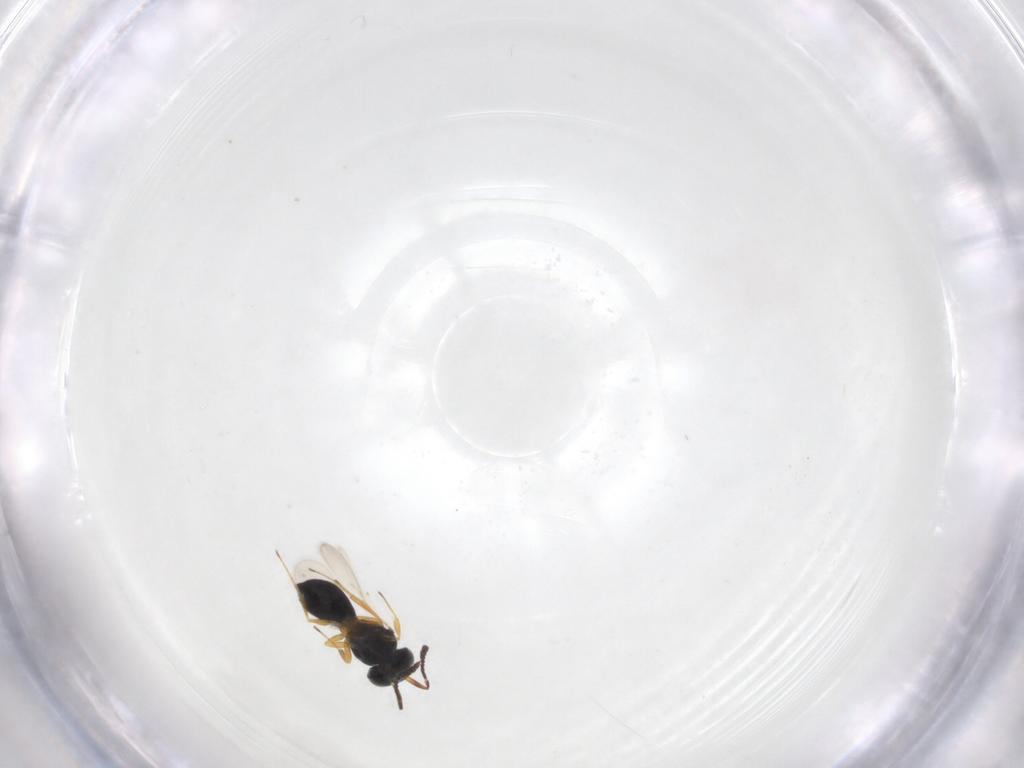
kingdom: Animalia
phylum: Arthropoda
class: Insecta
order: Hymenoptera
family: Scelionidae
